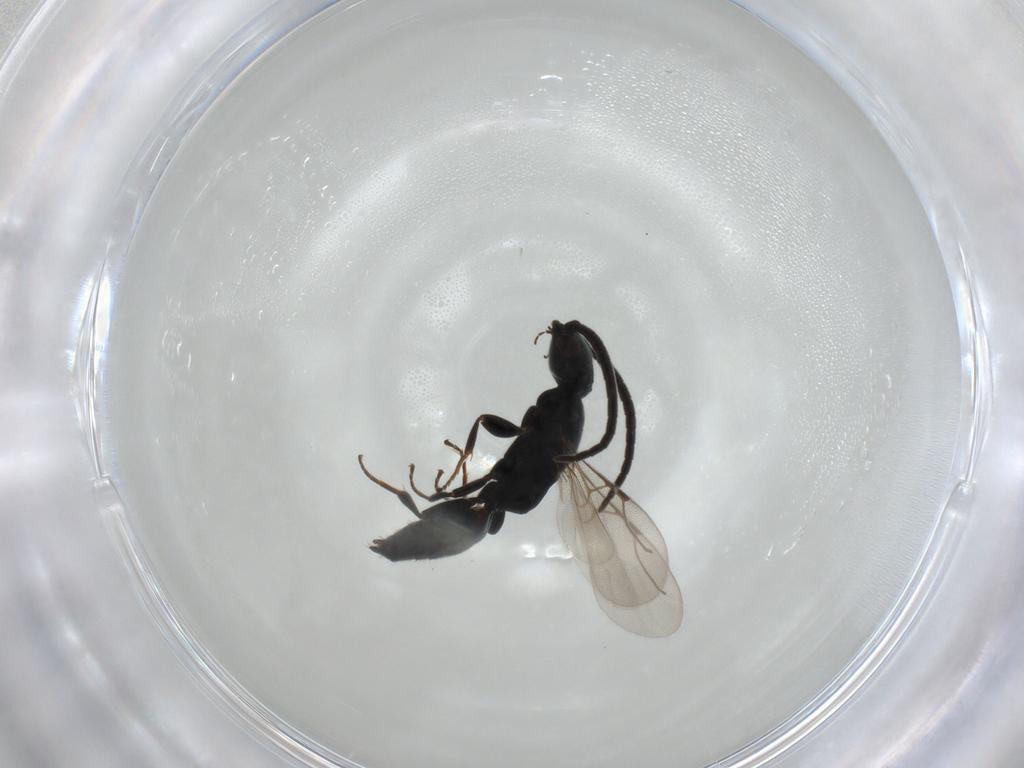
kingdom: Animalia
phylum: Arthropoda
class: Insecta
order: Hymenoptera
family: Bethylidae
